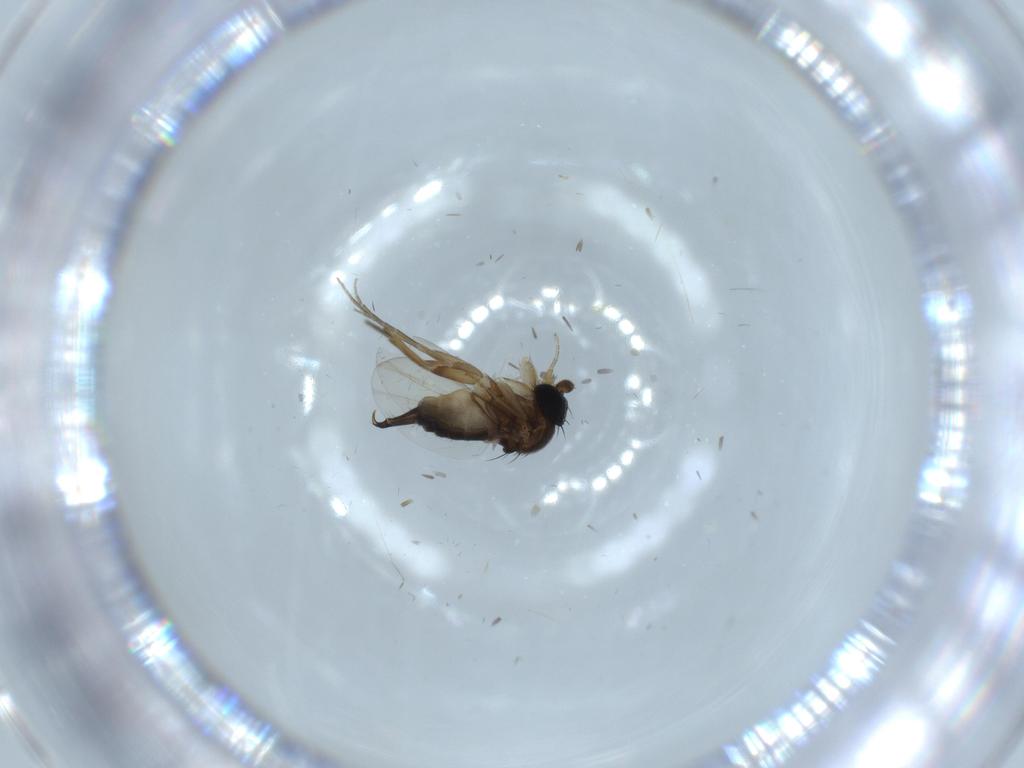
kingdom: Animalia
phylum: Arthropoda
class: Insecta
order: Diptera
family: Phoridae
